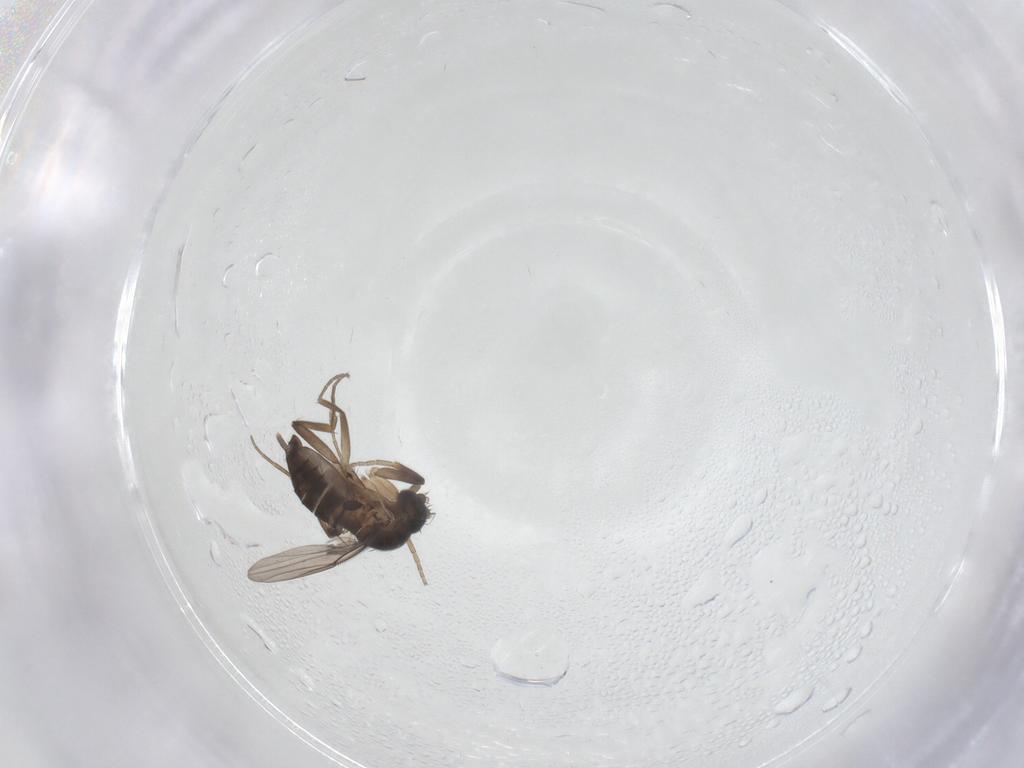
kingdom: Animalia
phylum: Arthropoda
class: Insecta
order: Diptera
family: Phoridae
